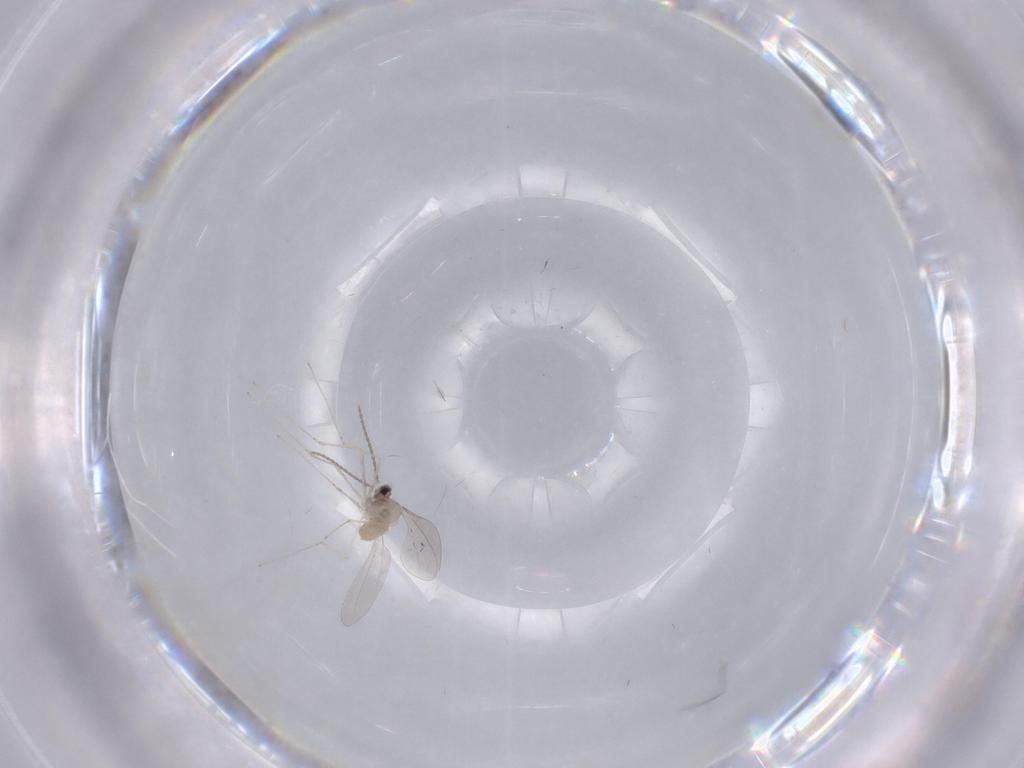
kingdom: Animalia
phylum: Arthropoda
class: Insecta
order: Diptera
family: Cecidomyiidae
